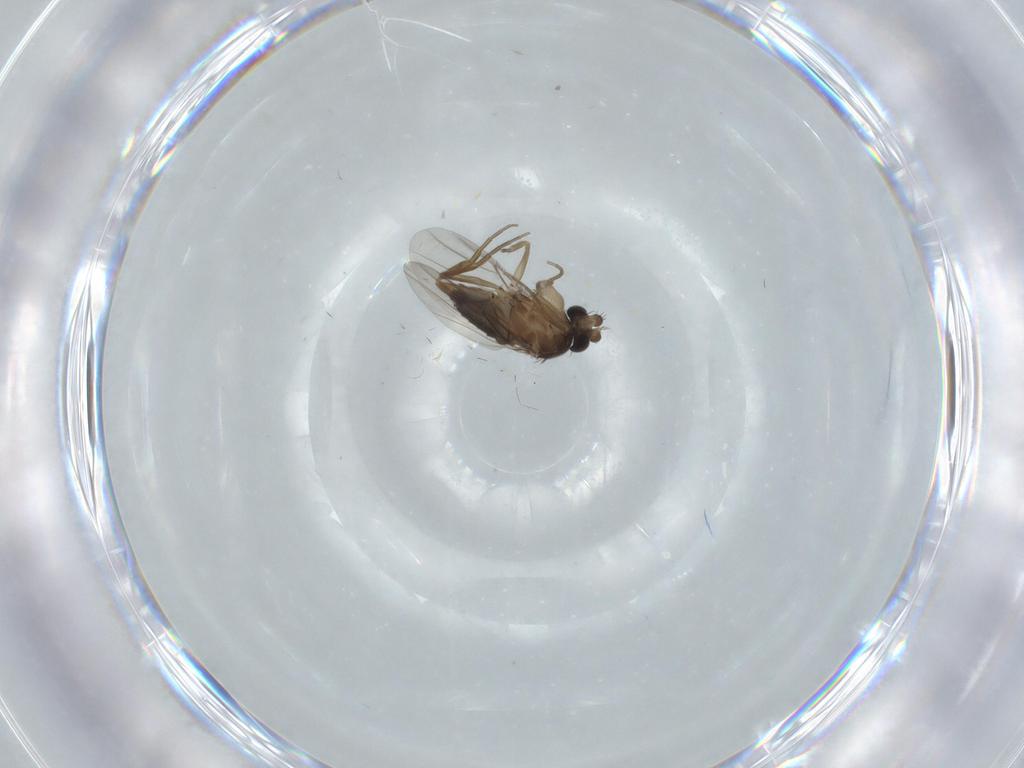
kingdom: Animalia
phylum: Arthropoda
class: Insecta
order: Diptera
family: Phoridae
